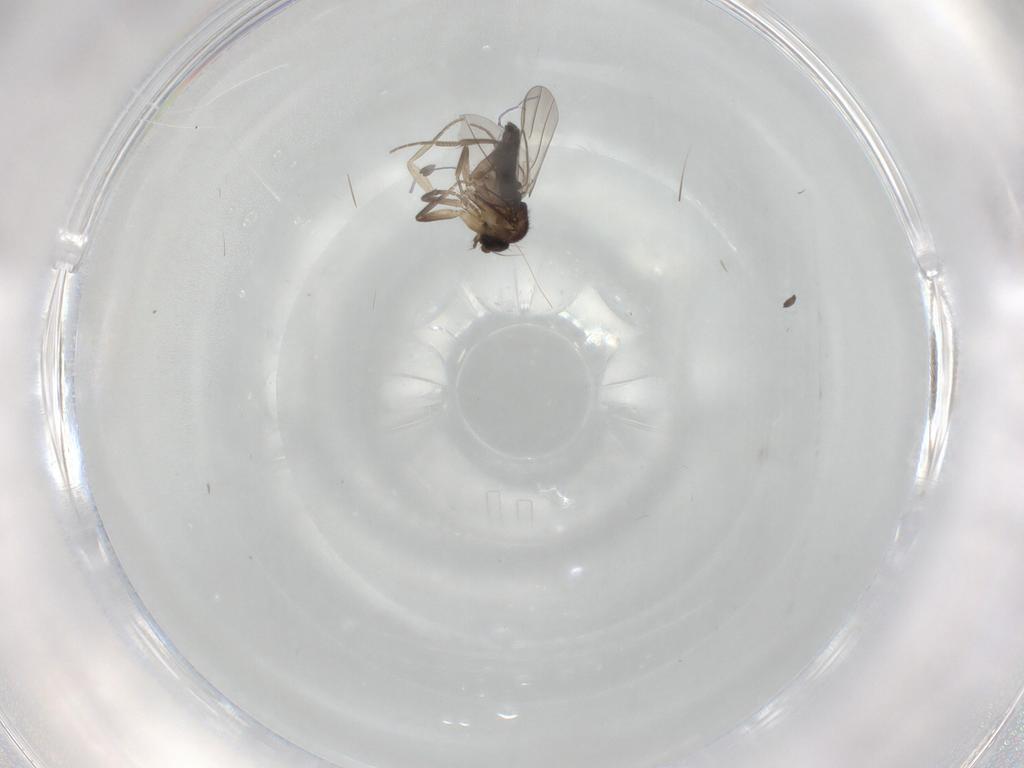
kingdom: Animalia
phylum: Arthropoda
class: Insecta
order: Diptera
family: Phoridae
